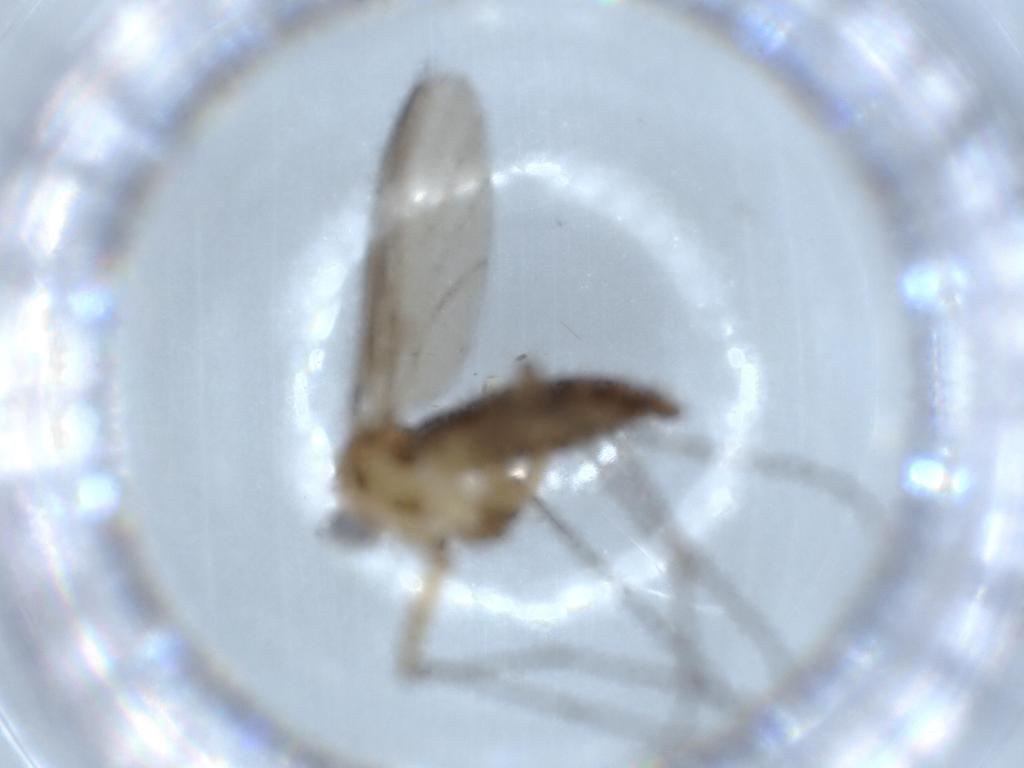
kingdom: Animalia
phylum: Arthropoda
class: Insecta
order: Diptera
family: Sciaridae
